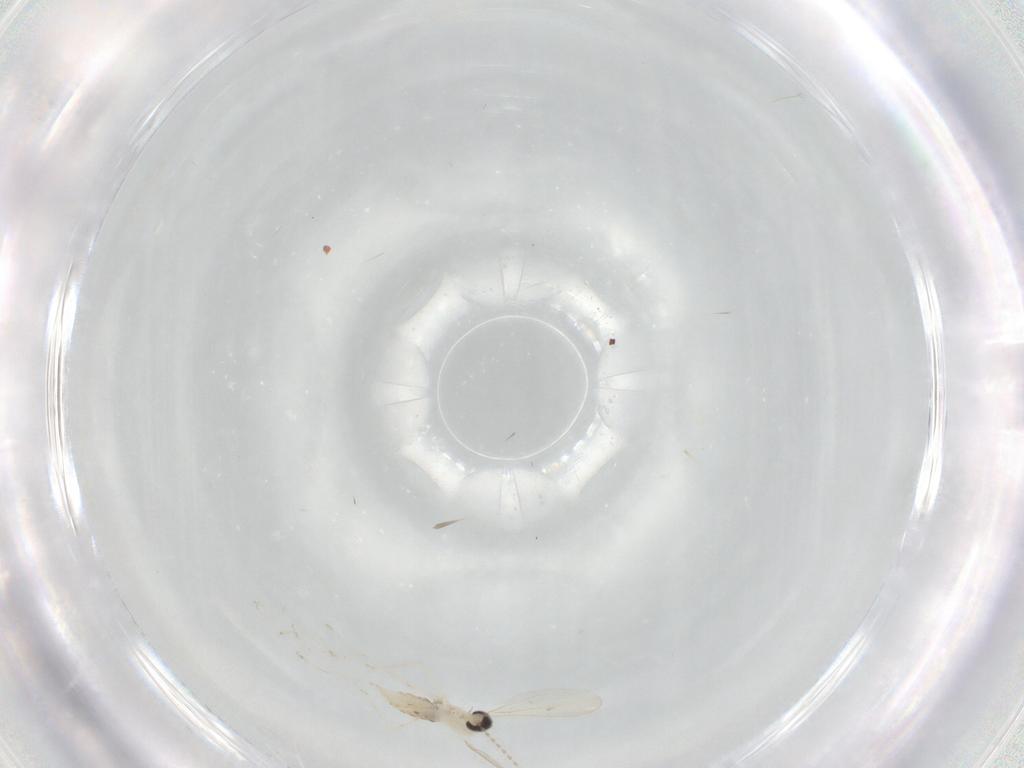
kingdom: Animalia
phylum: Arthropoda
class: Insecta
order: Diptera
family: Cecidomyiidae
